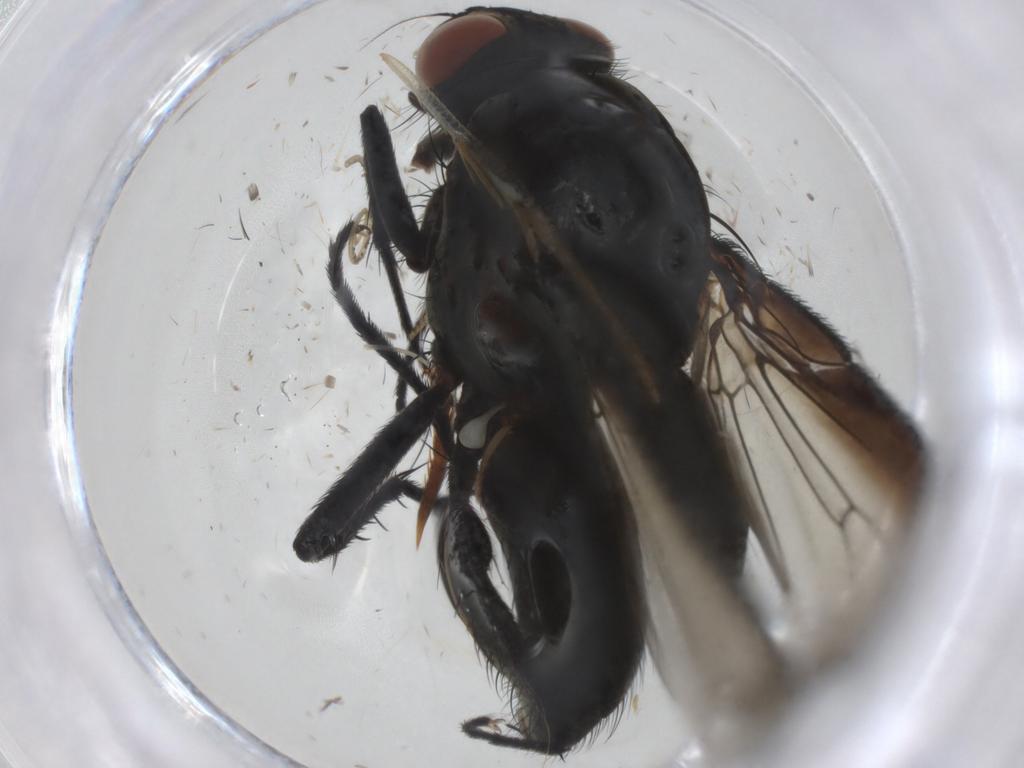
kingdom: Animalia
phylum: Arthropoda
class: Insecta
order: Diptera
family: Anthomyiidae
